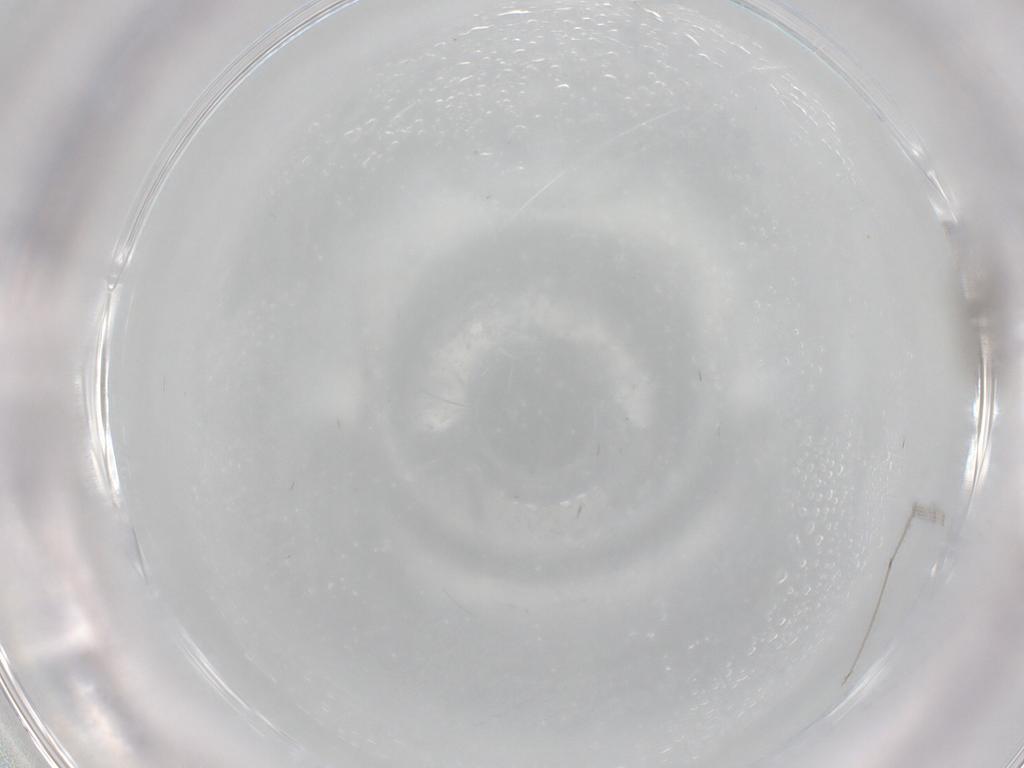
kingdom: Animalia
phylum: Arthropoda
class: Insecta
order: Diptera
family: Cecidomyiidae
